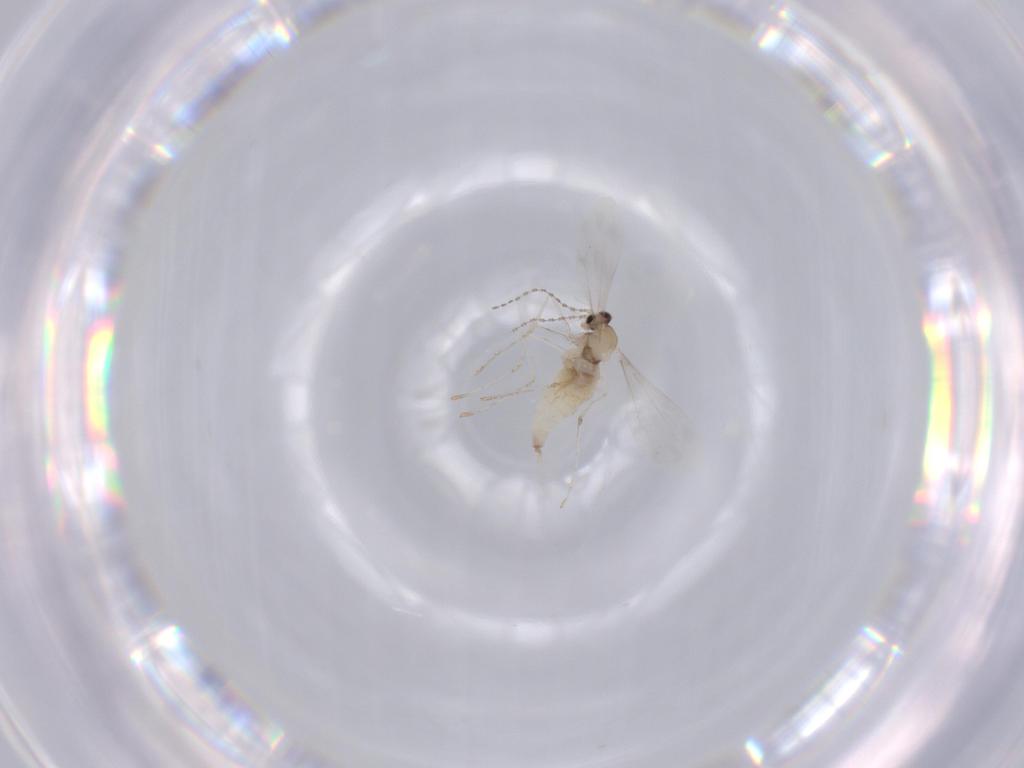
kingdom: Animalia
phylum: Arthropoda
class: Insecta
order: Diptera
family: Cecidomyiidae
